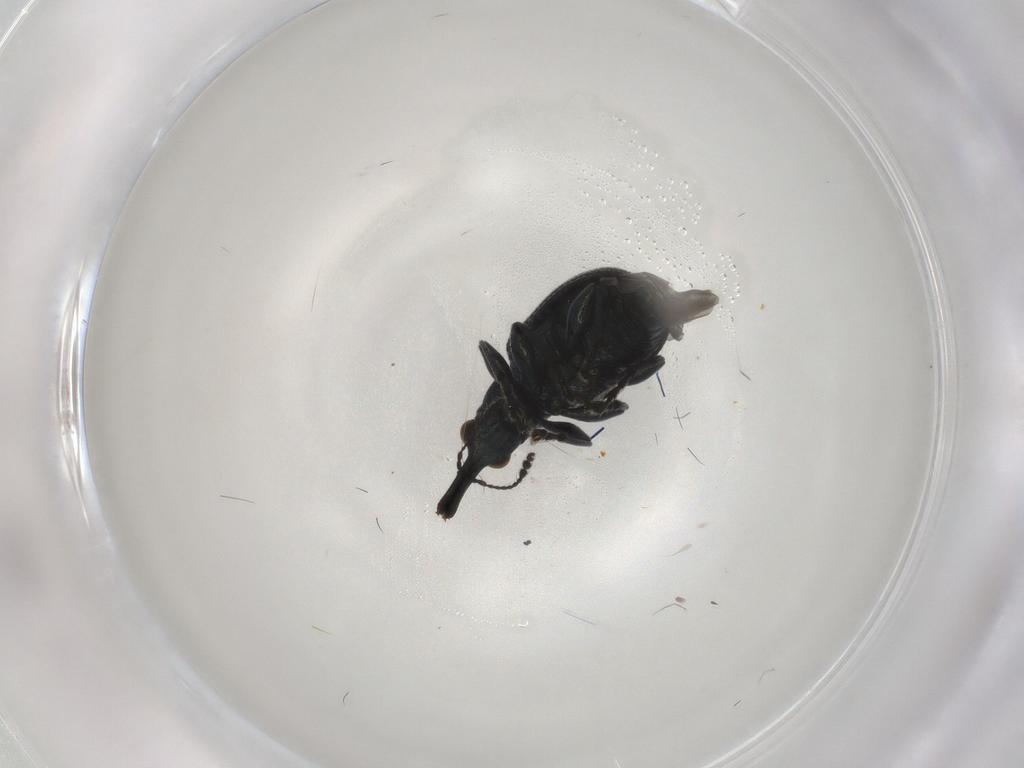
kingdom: Animalia
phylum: Arthropoda
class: Insecta
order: Coleoptera
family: Attelabidae
